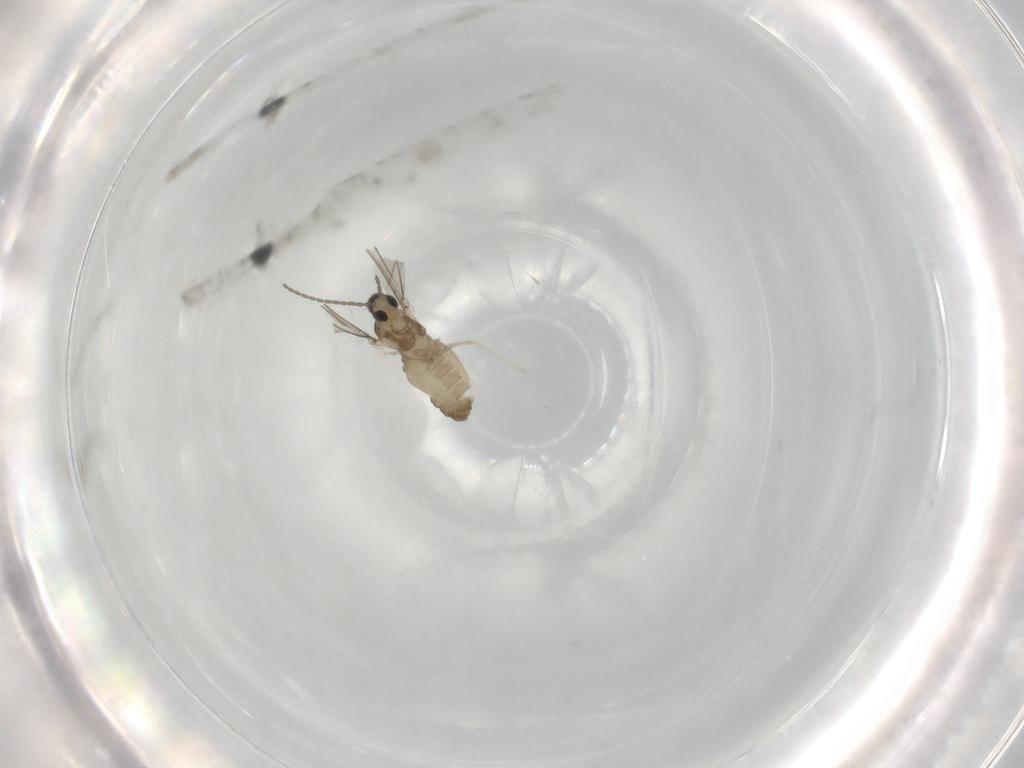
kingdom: Animalia
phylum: Arthropoda
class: Insecta
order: Diptera
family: Cecidomyiidae
